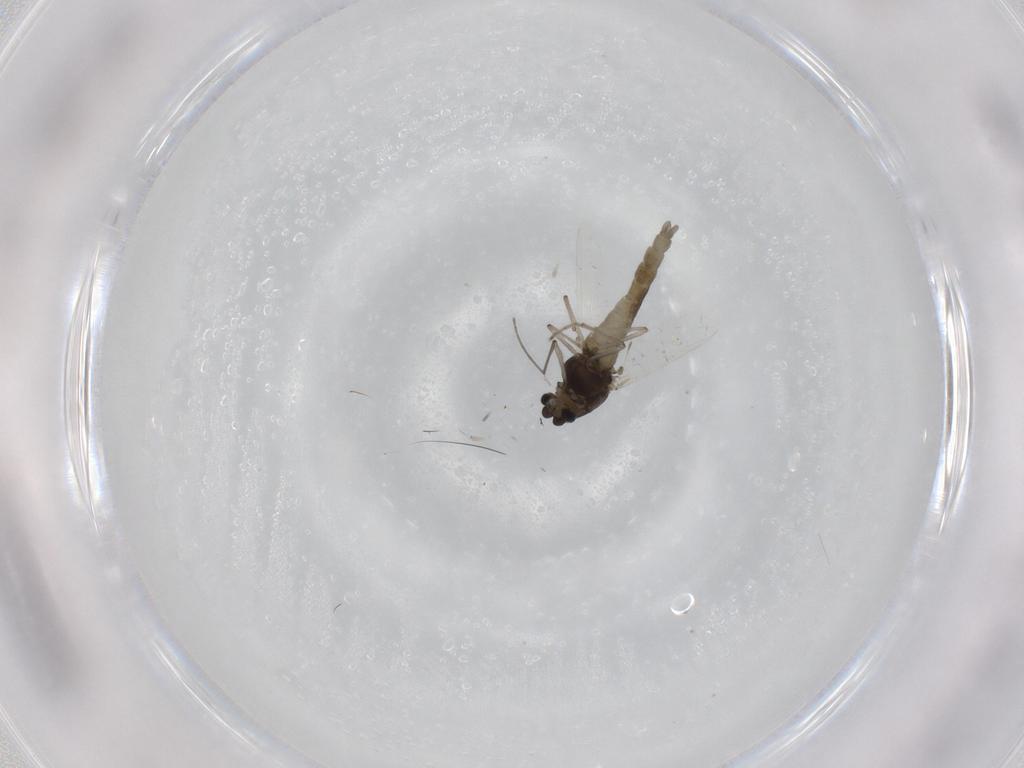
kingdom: Animalia
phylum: Arthropoda
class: Insecta
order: Diptera
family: Chironomidae
